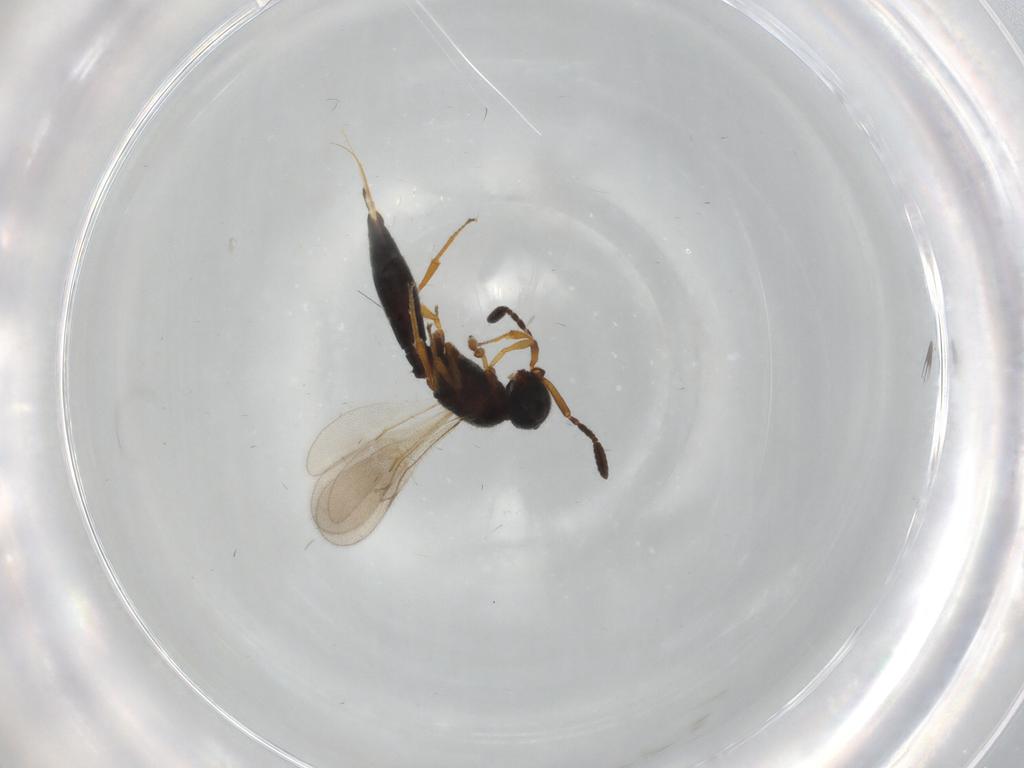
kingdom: Animalia
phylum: Arthropoda
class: Insecta
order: Hymenoptera
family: Scelionidae
